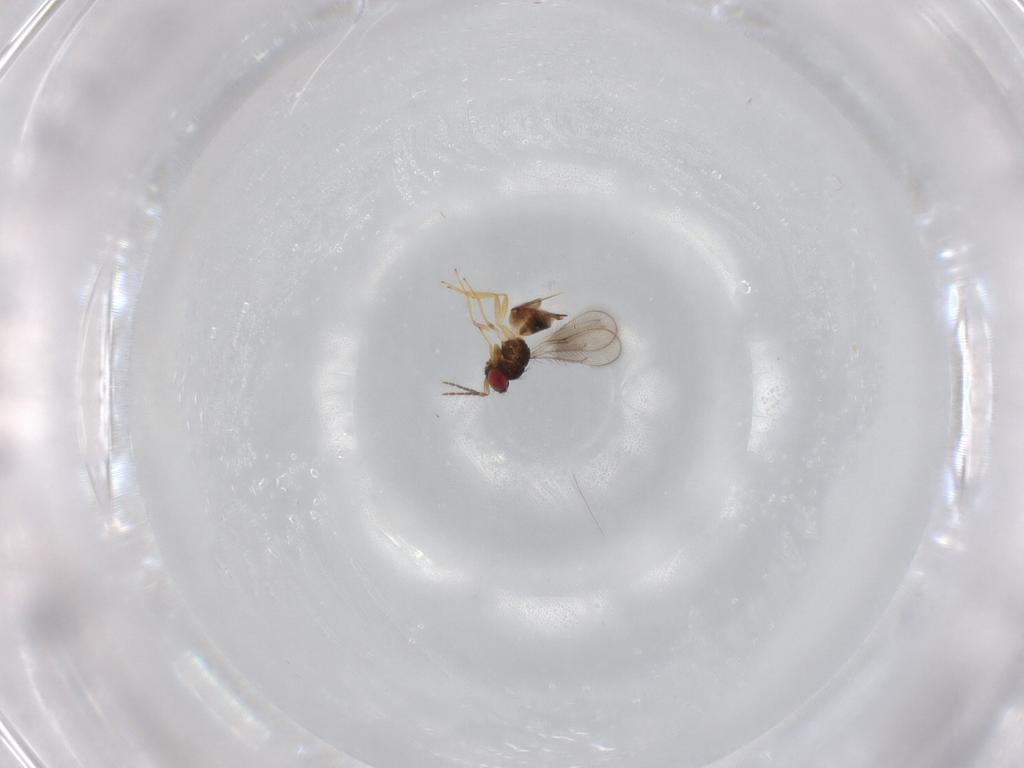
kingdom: Animalia
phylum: Arthropoda
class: Insecta
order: Hymenoptera
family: Eulophidae
